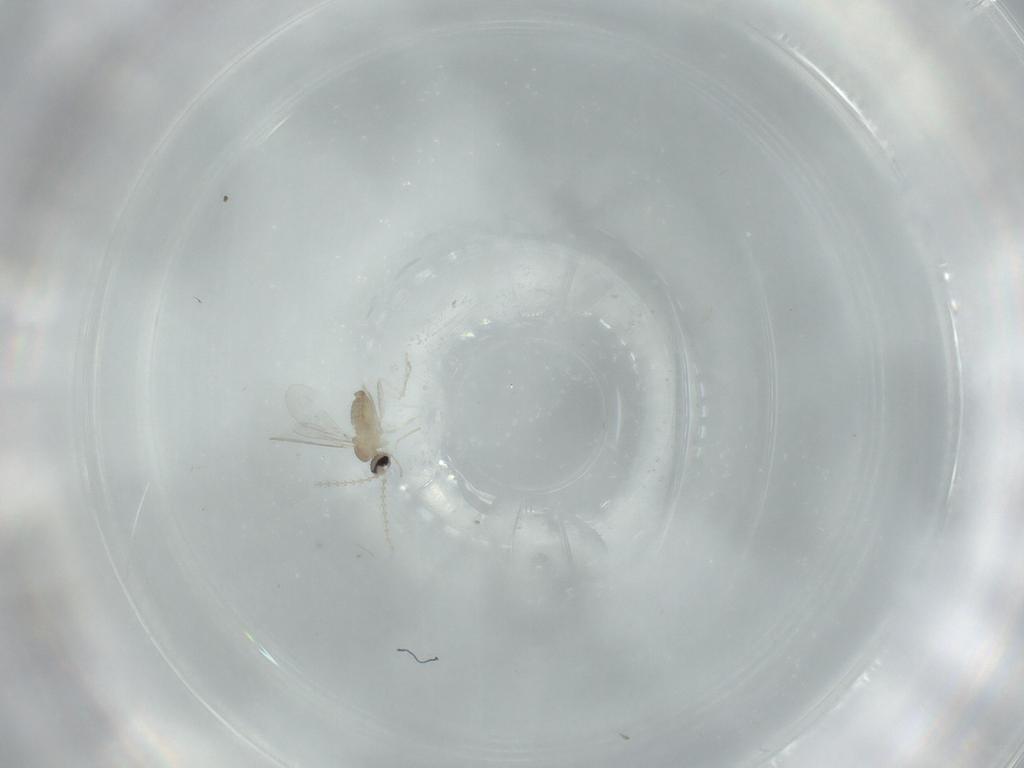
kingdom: Animalia
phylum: Arthropoda
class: Insecta
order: Diptera
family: Cecidomyiidae
